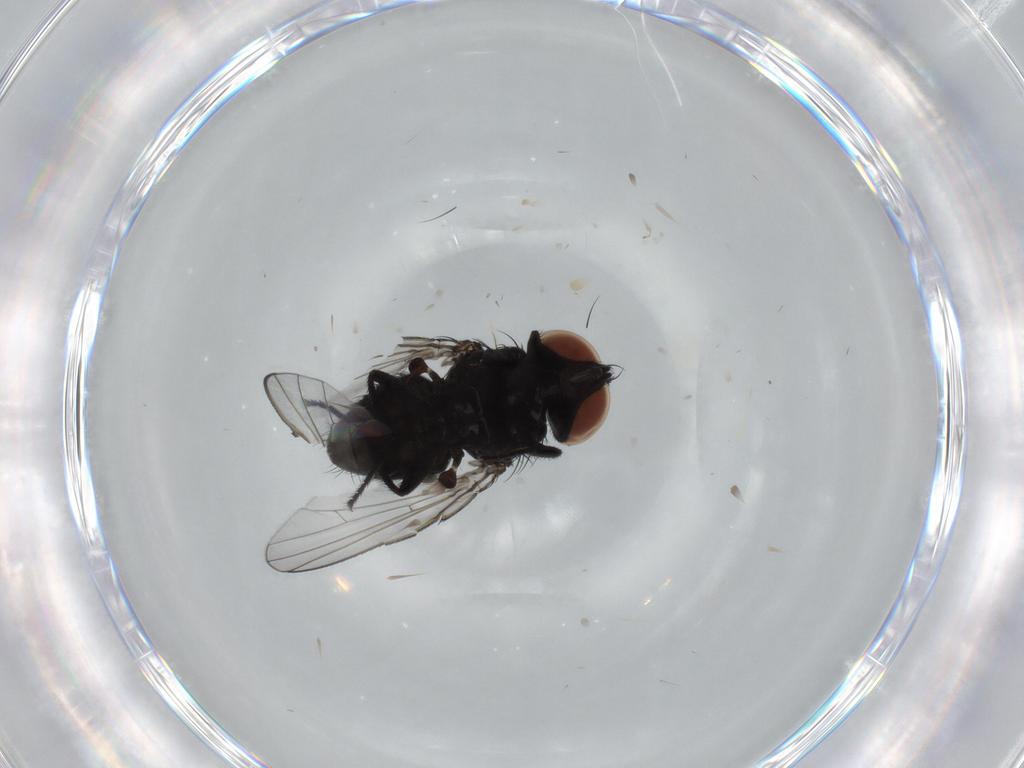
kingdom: Animalia
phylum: Arthropoda
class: Insecta
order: Diptera
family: Milichiidae
